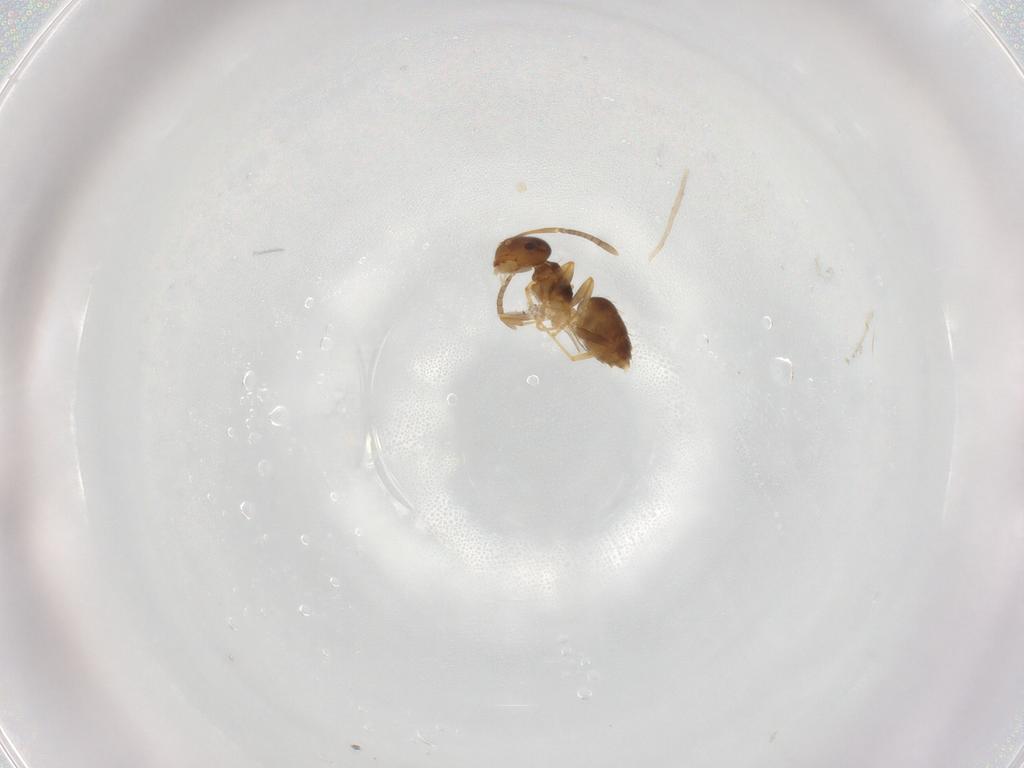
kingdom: Animalia
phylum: Arthropoda
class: Insecta
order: Hymenoptera
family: Formicidae
